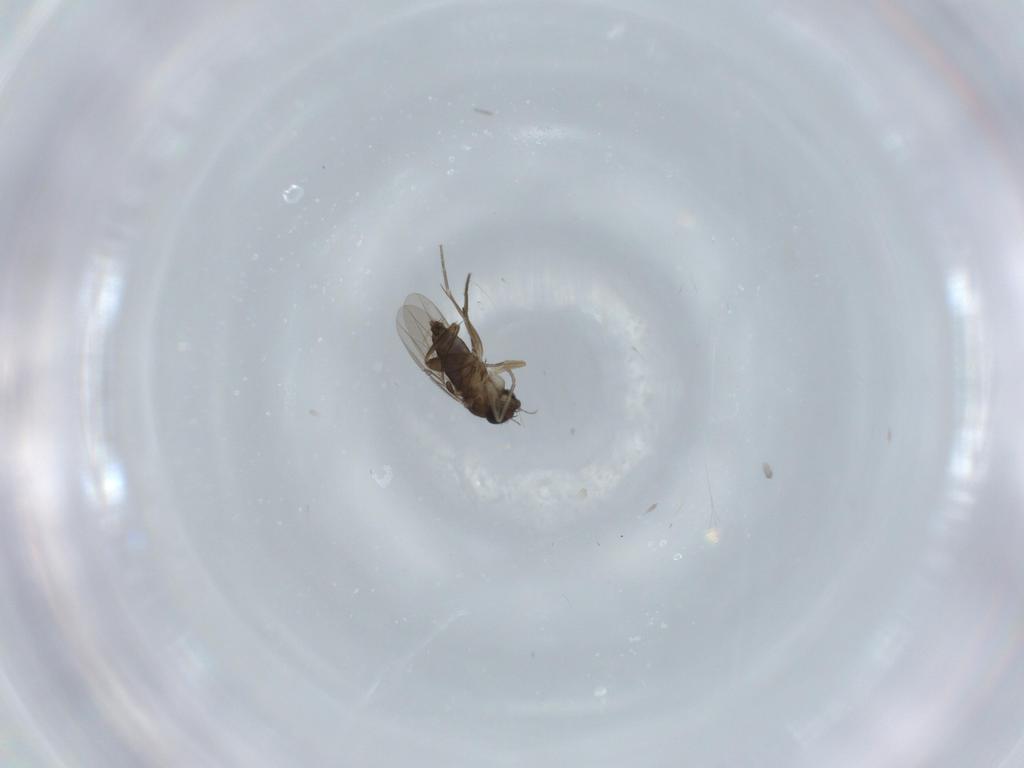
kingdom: Animalia
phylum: Arthropoda
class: Insecta
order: Diptera
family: Phoridae
